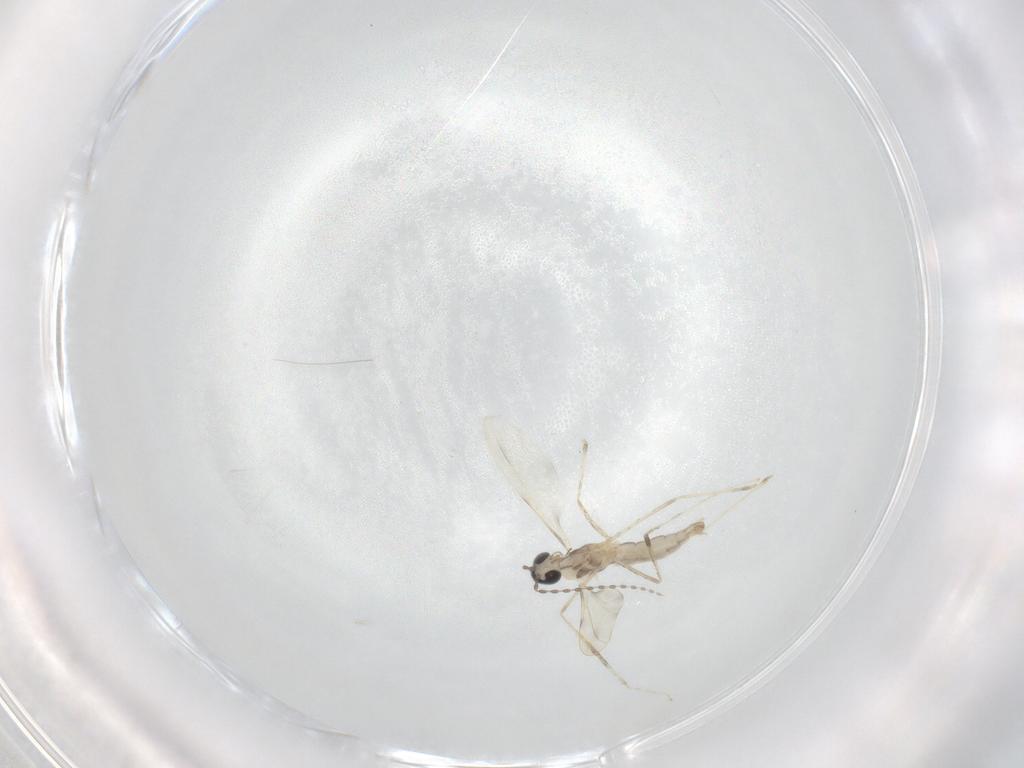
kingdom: Animalia
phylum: Arthropoda
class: Insecta
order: Diptera
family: Cecidomyiidae
